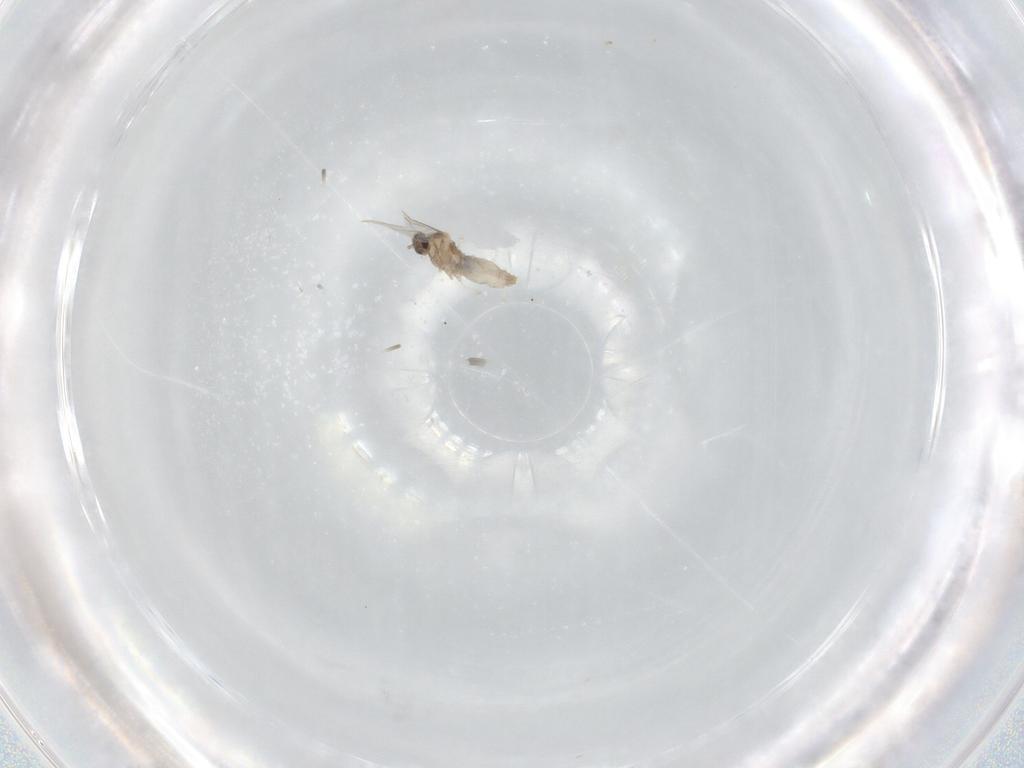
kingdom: Animalia
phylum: Arthropoda
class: Insecta
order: Diptera
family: Cecidomyiidae
